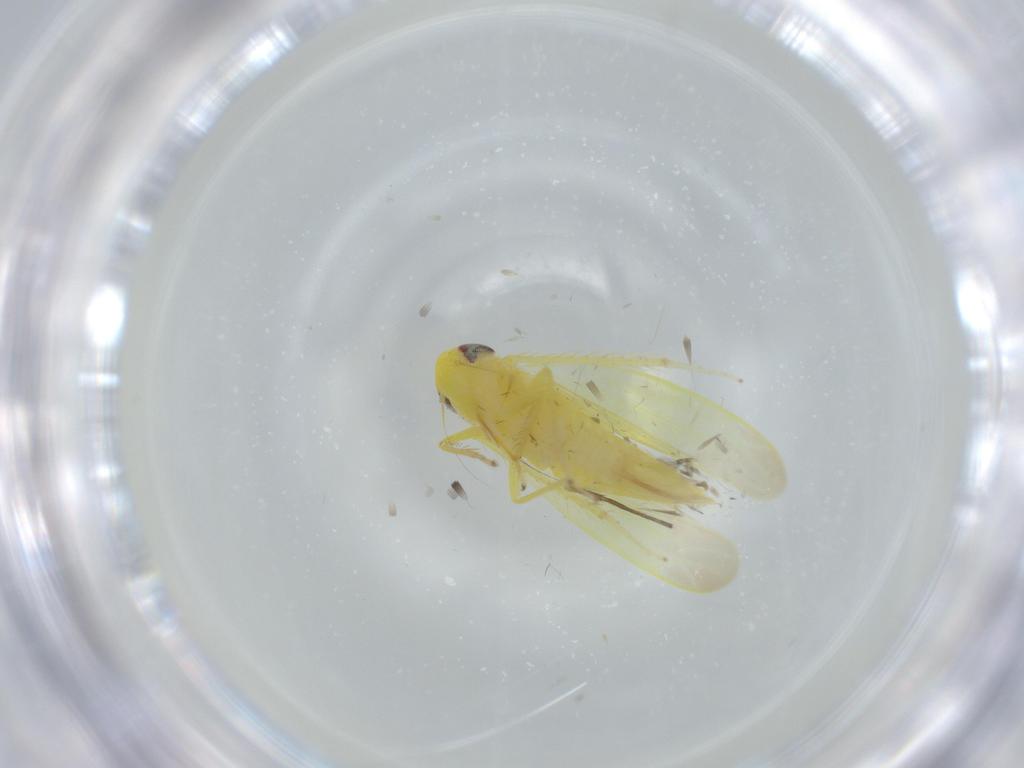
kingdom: Animalia
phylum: Arthropoda
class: Insecta
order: Hemiptera
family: Cicadellidae
